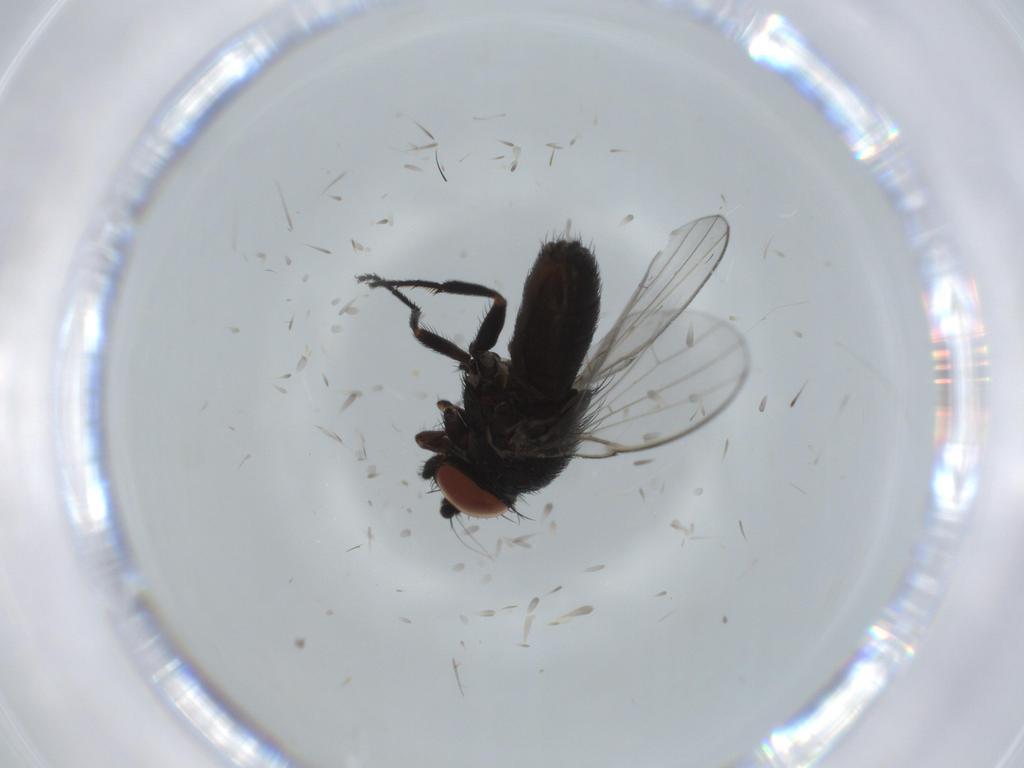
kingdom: Animalia
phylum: Arthropoda
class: Insecta
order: Diptera
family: Milichiidae
